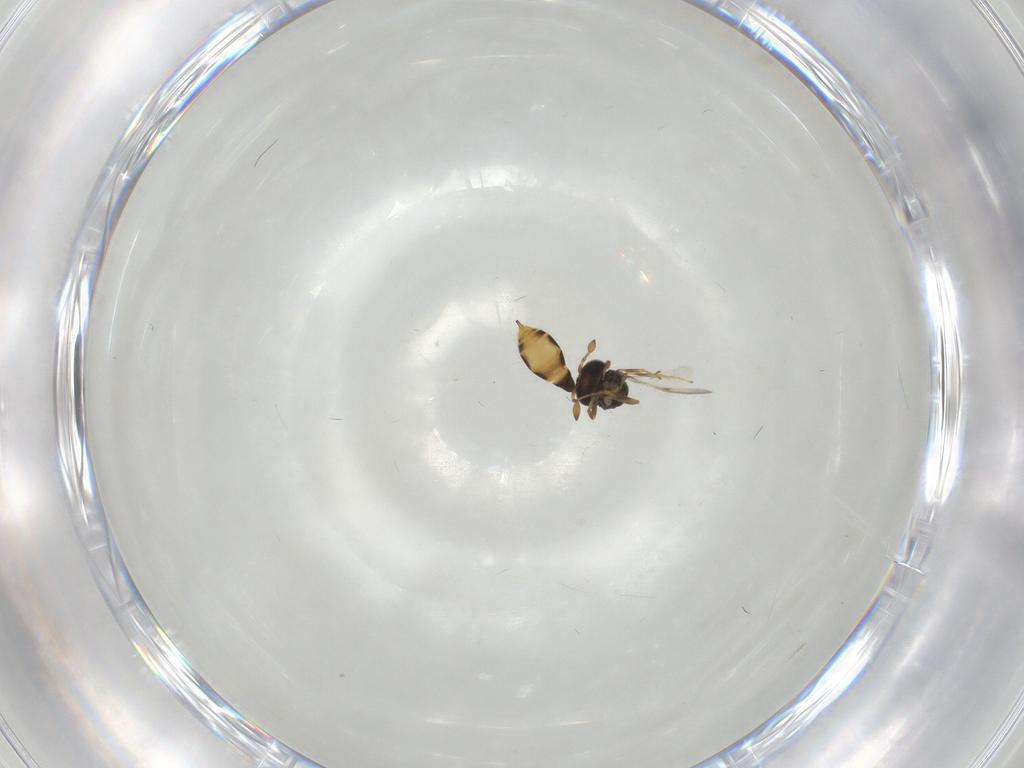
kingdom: Animalia
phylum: Arthropoda
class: Insecta
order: Hymenoptera
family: Scelionidae
